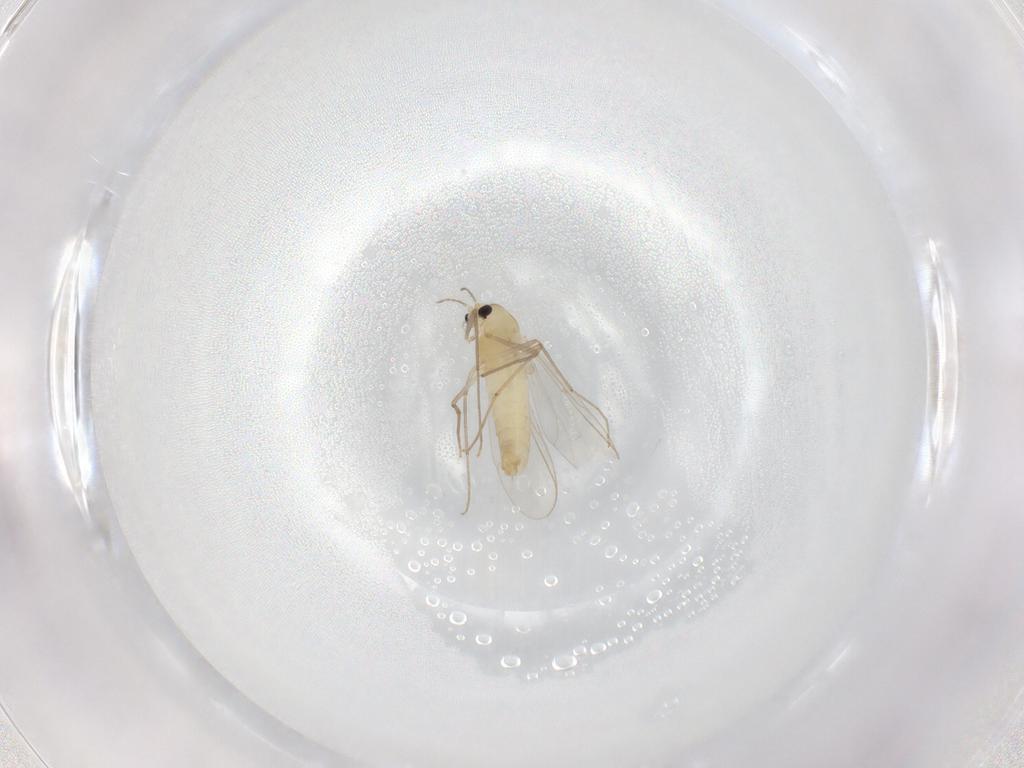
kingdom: Animalia
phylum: Arthropoda
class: Insecta
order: Diptera
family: Chironomidae
